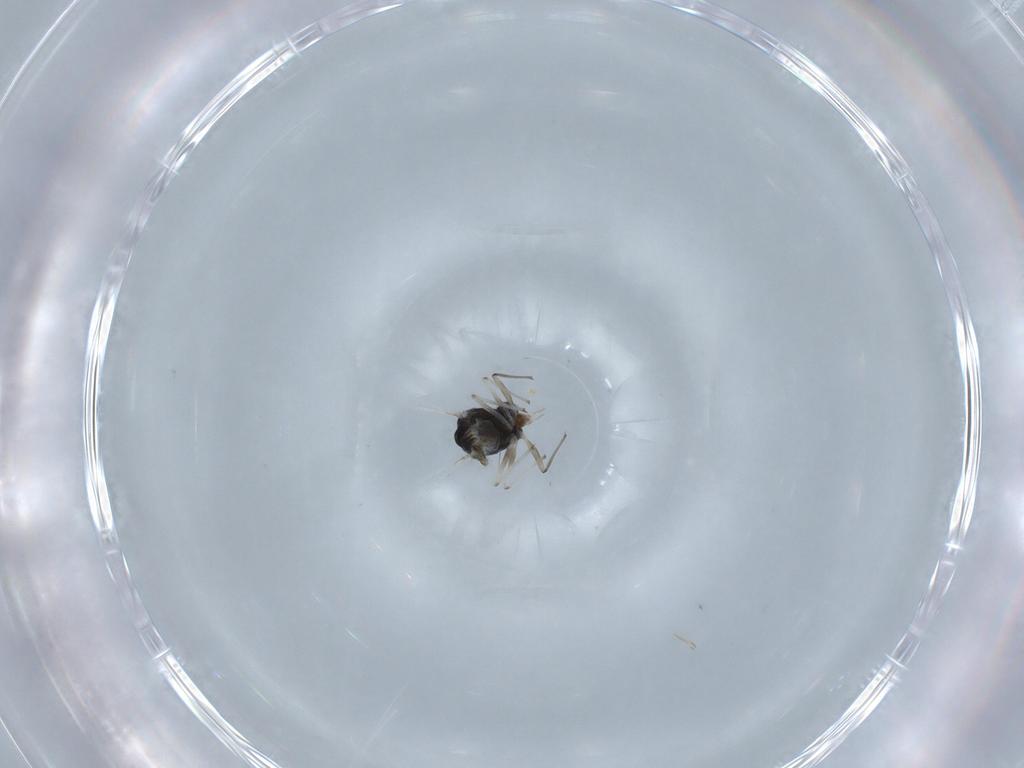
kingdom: Animalia
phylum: Arthropoda
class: Insecta
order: Diptera
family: Chironomidae
